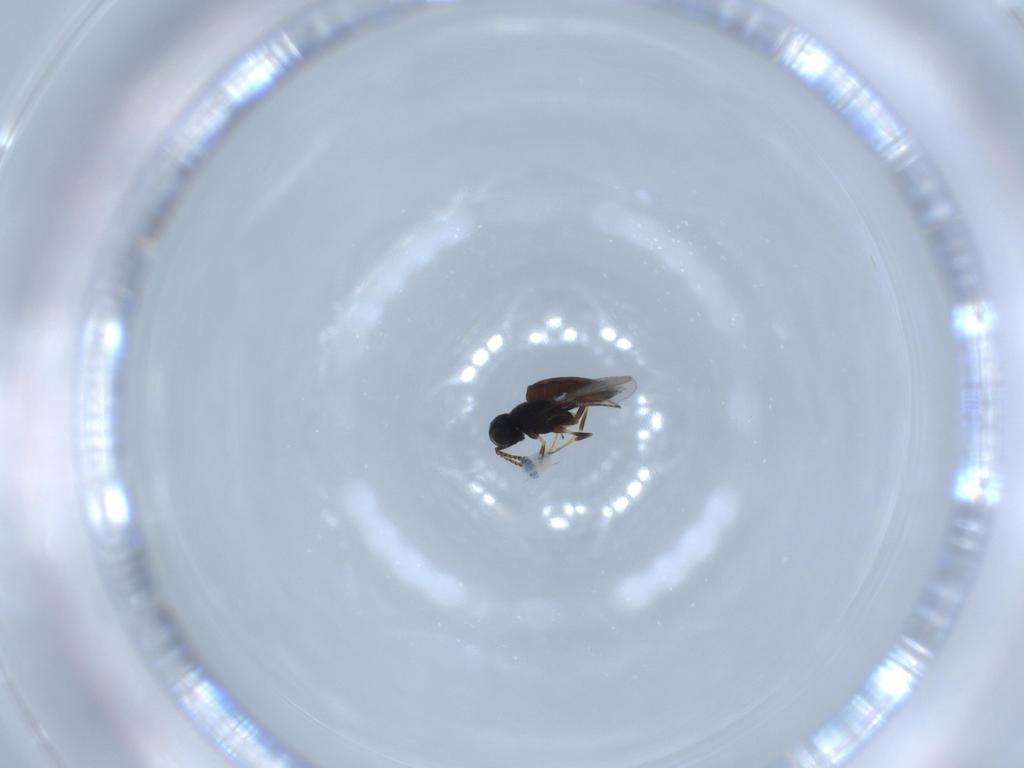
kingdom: Animalia
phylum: Arthropoda
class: Insecta
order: Hymenoptera
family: Scelionidae
